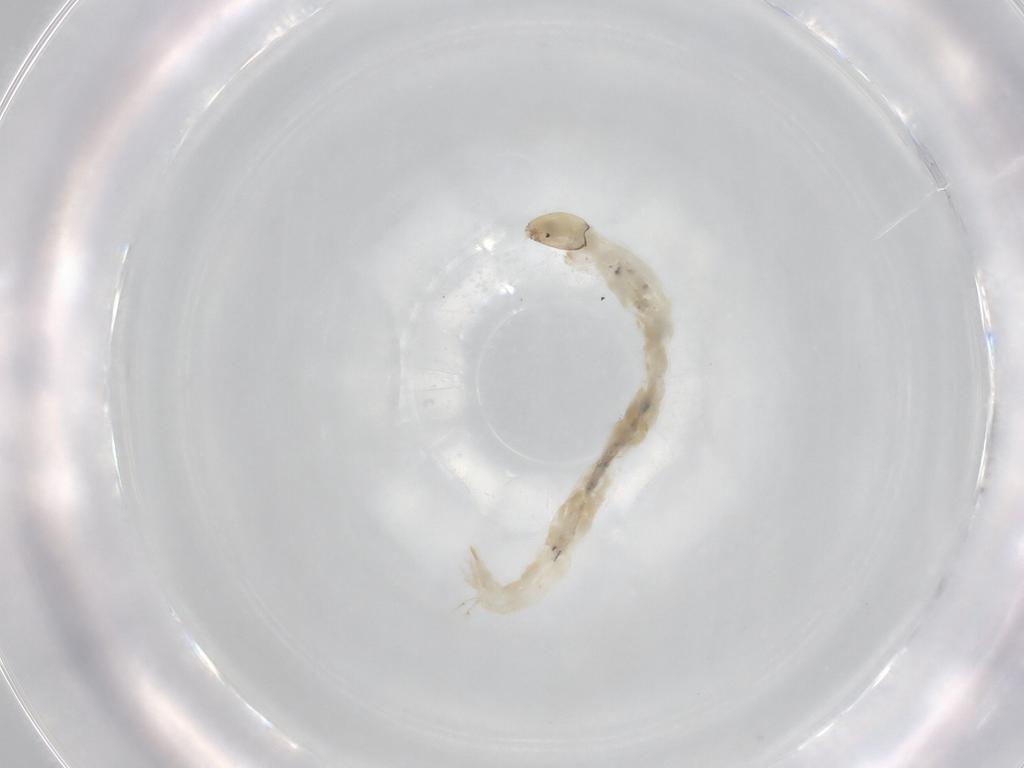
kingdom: Animalia
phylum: Arthropoda
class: Insecta
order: Diptera
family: Chironomidae
